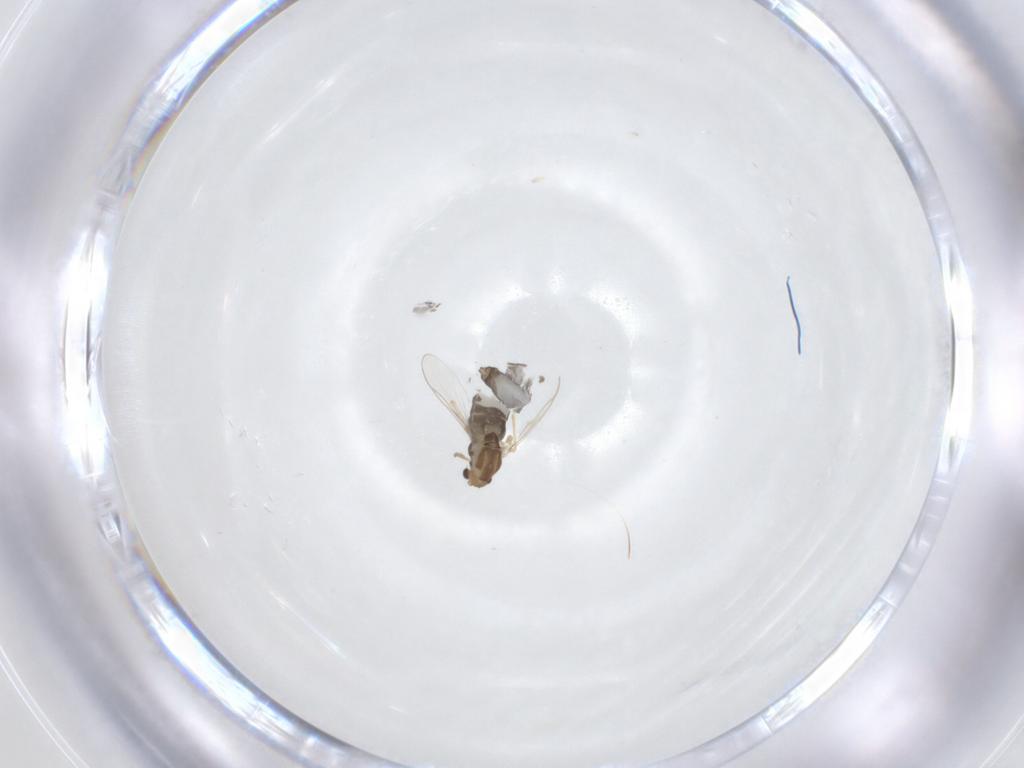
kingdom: Animalia
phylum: Arthropoda
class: Insecta
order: Diptera
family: Chironomidae
